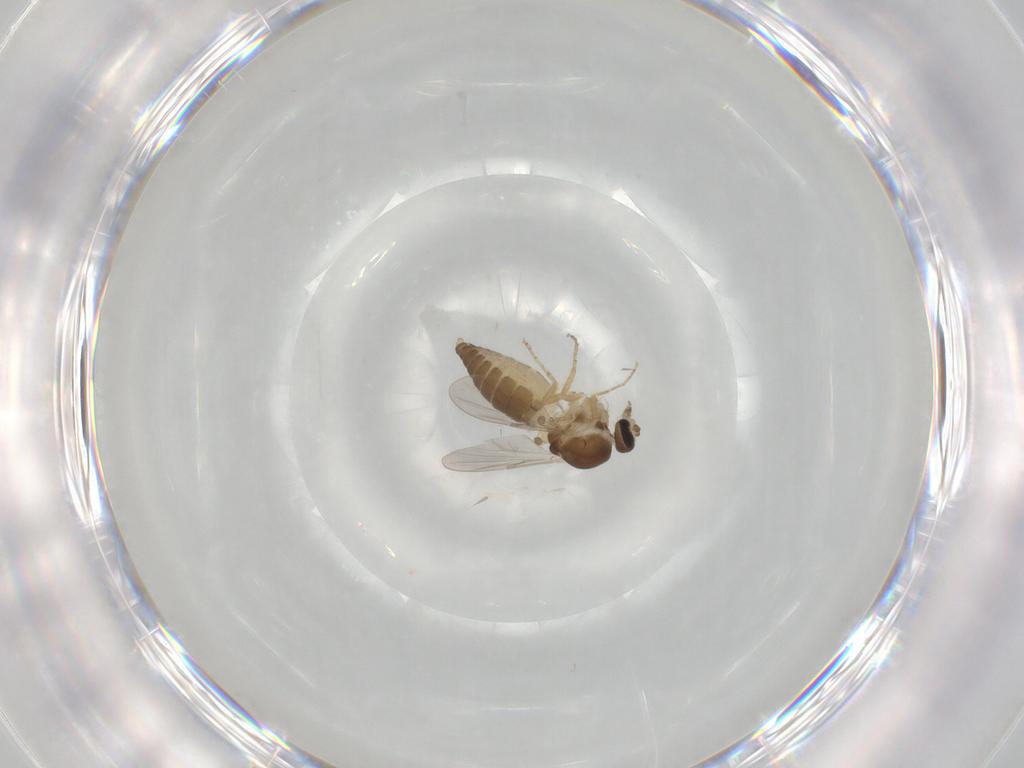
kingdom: Animalia
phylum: Arthropoda
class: Insecta
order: Diptera
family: Ceratopogonidae
